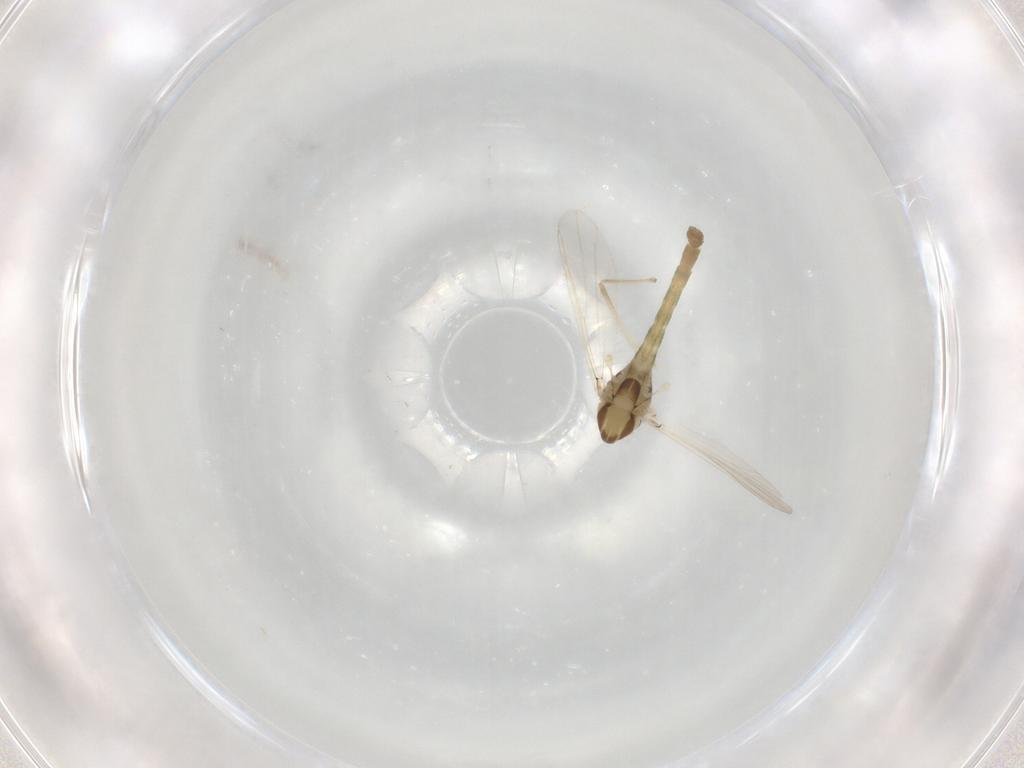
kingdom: Animalia
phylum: Arthropoda
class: Insecta
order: Diptera
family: Chironomidae
